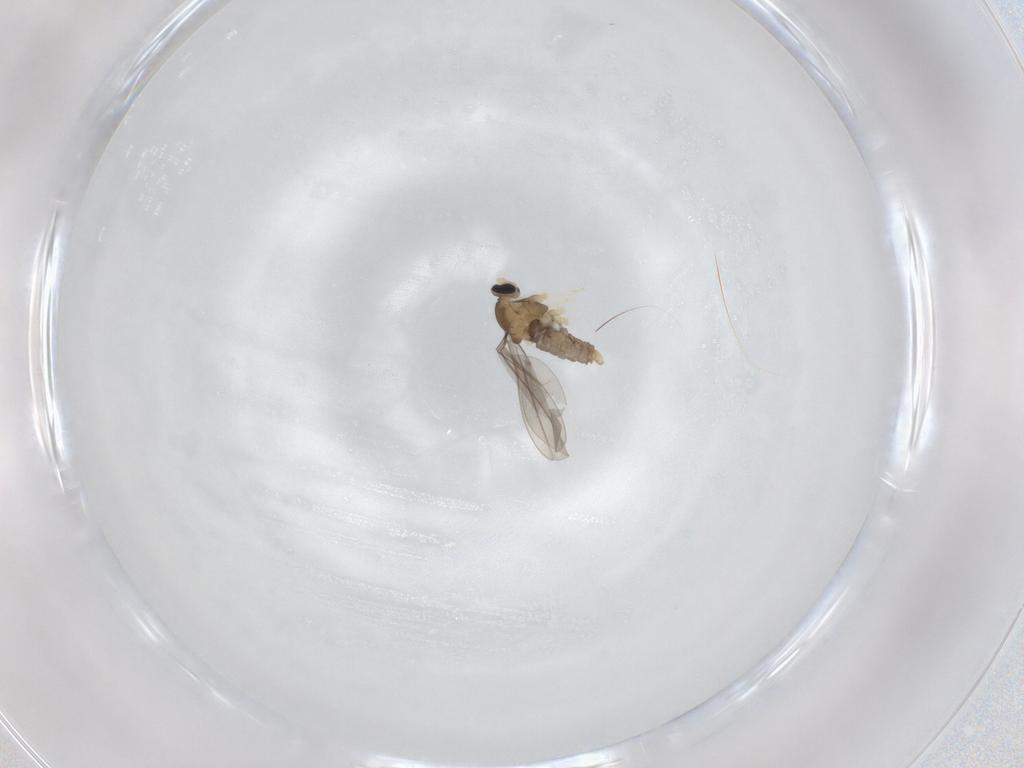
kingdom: Animalia
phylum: Arthropoda
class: Insecta
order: Diptera
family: Cecidomyiidae
